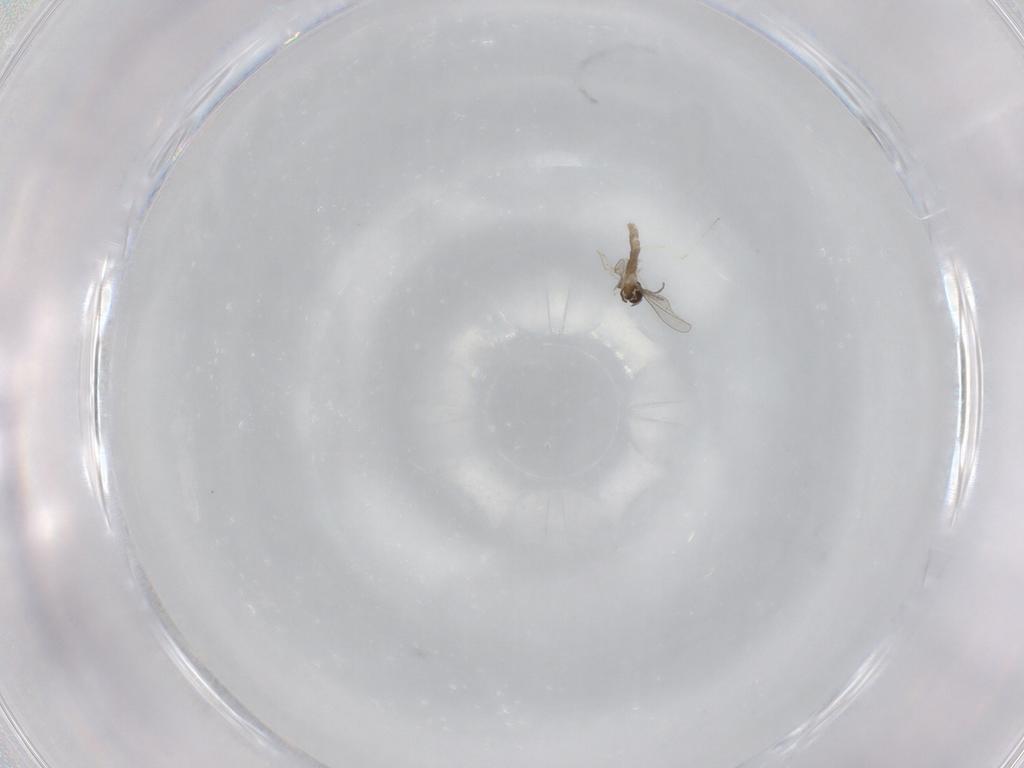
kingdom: Animalia
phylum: Arthropoda
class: Insecta
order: Diptera
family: Cecidomyiidae
